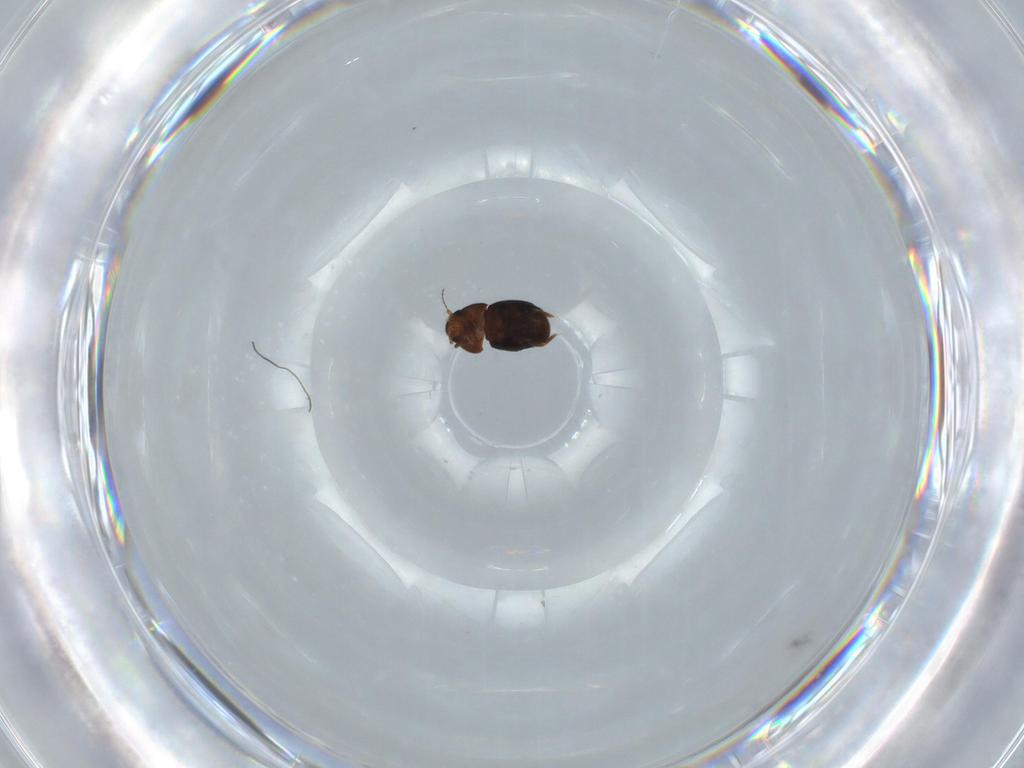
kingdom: Animalia
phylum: Arthropoda
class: Insecta
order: Coleoptera
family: Ptiliidae
